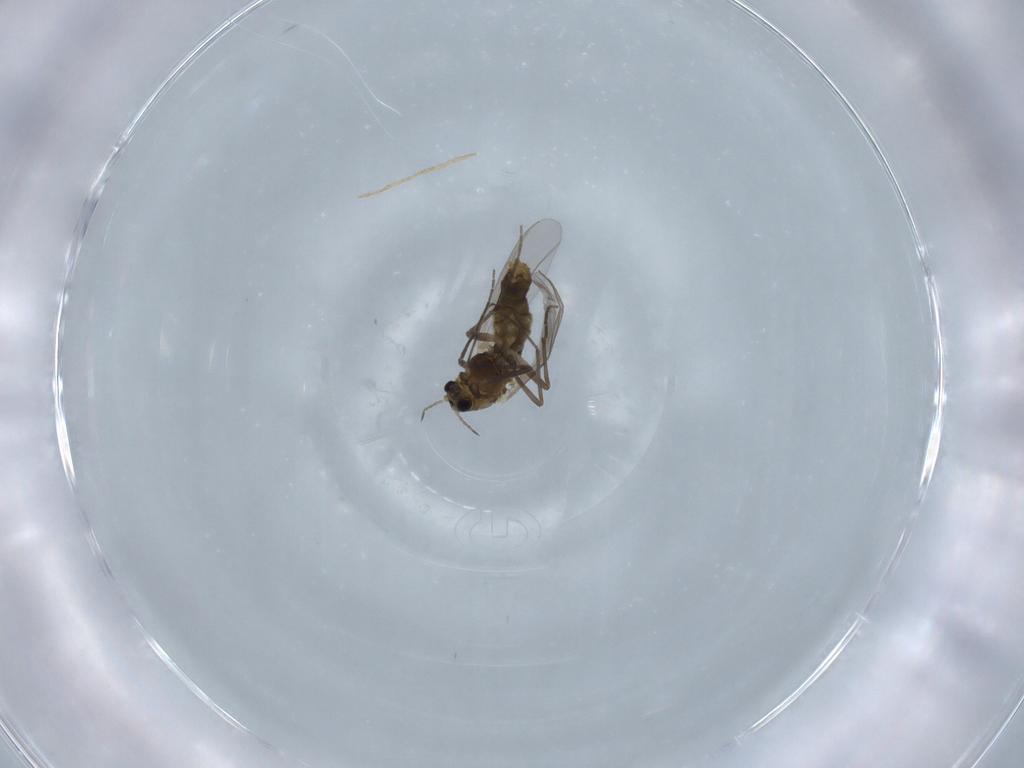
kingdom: Animalia
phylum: Arthropoda
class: Insecta
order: Diptera
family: Chironomidae
